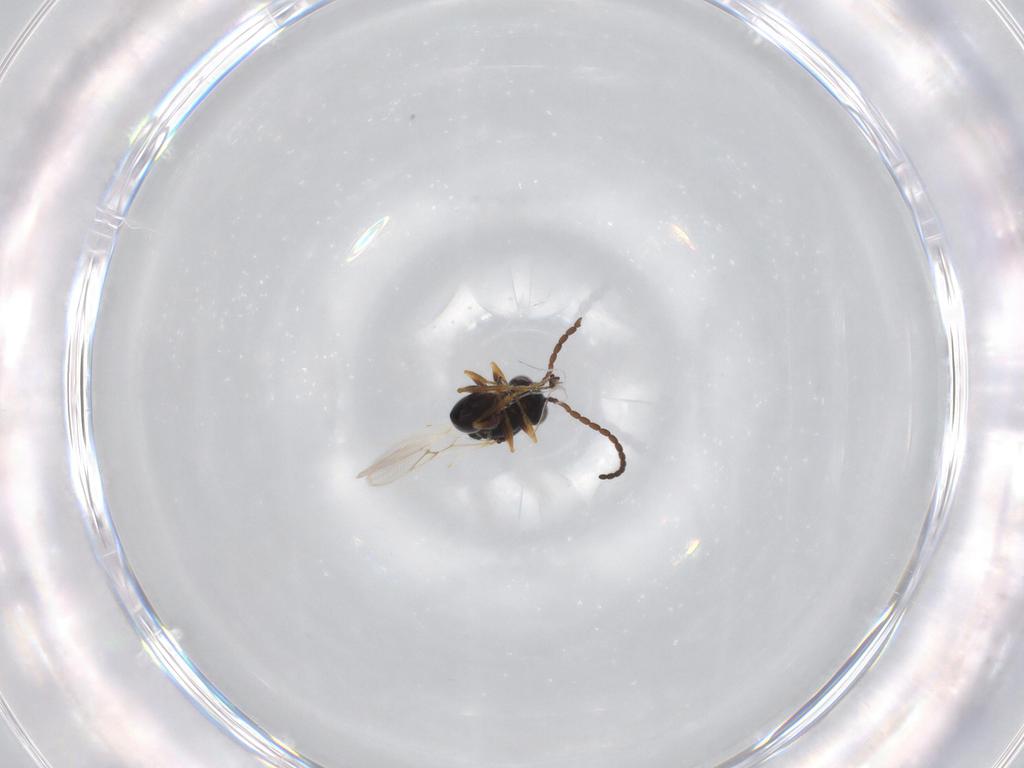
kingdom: Animalia
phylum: Arthropoda
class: Insecta
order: Hymenoptera
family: Figitidae
